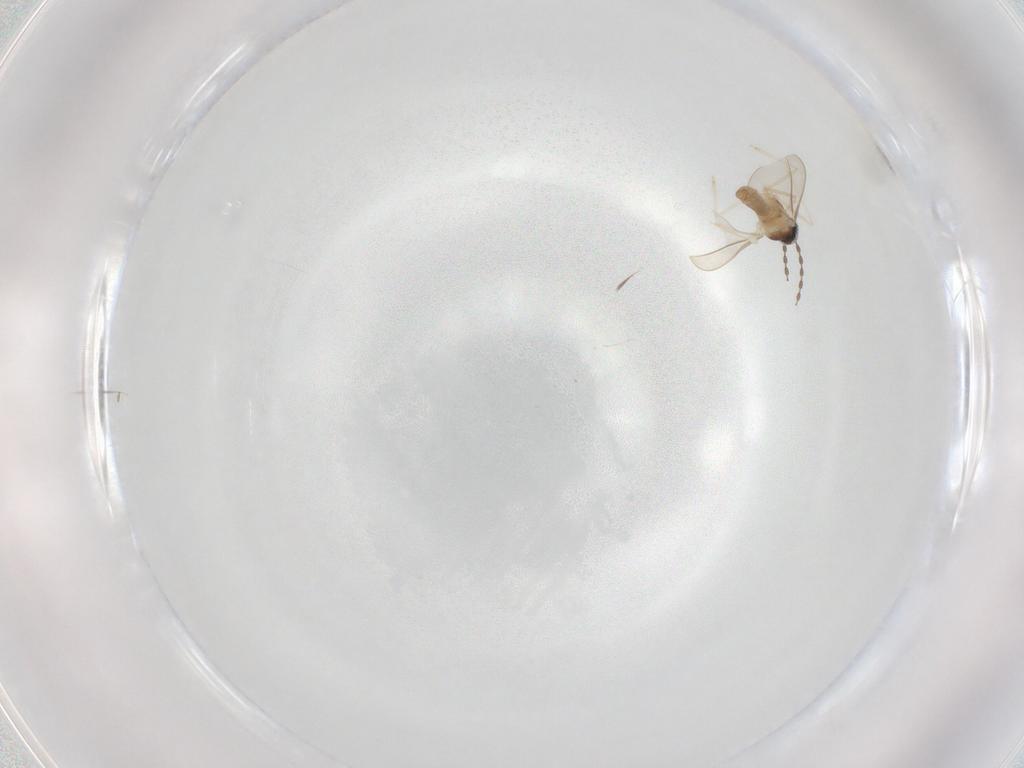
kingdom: Animalia
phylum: Arthropoda
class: Insecta
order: Diptera
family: Cecidomyiidae
